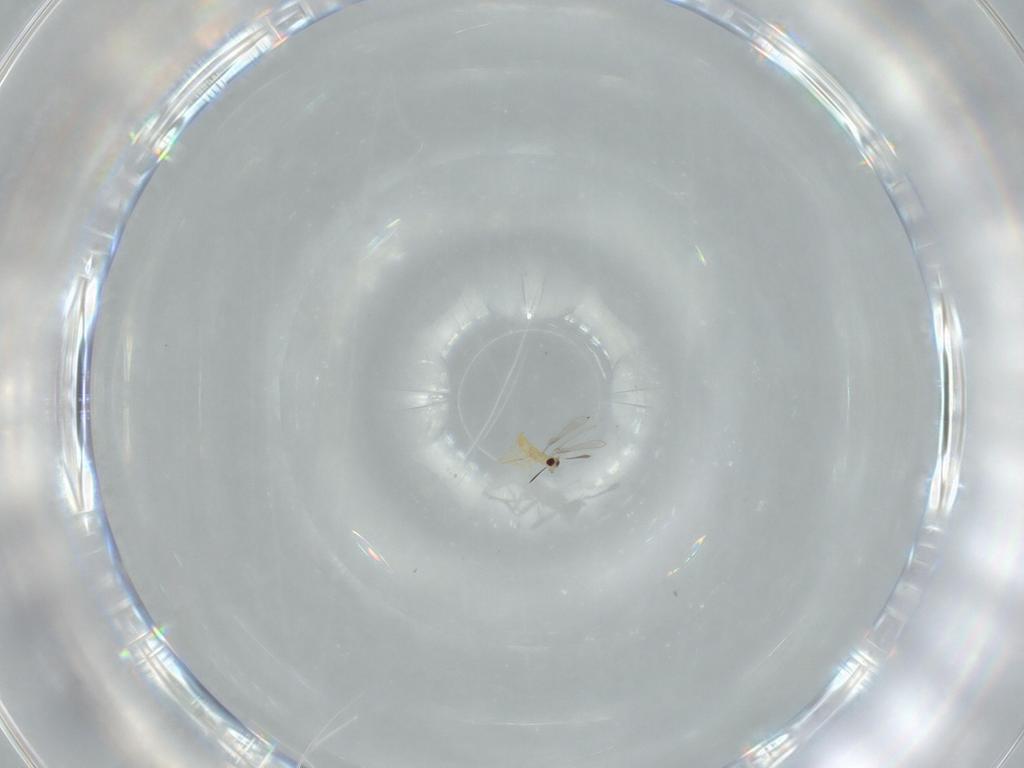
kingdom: Animalia
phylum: Arthropoda
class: Insecta
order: Hymenoptera
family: Mymaridae
